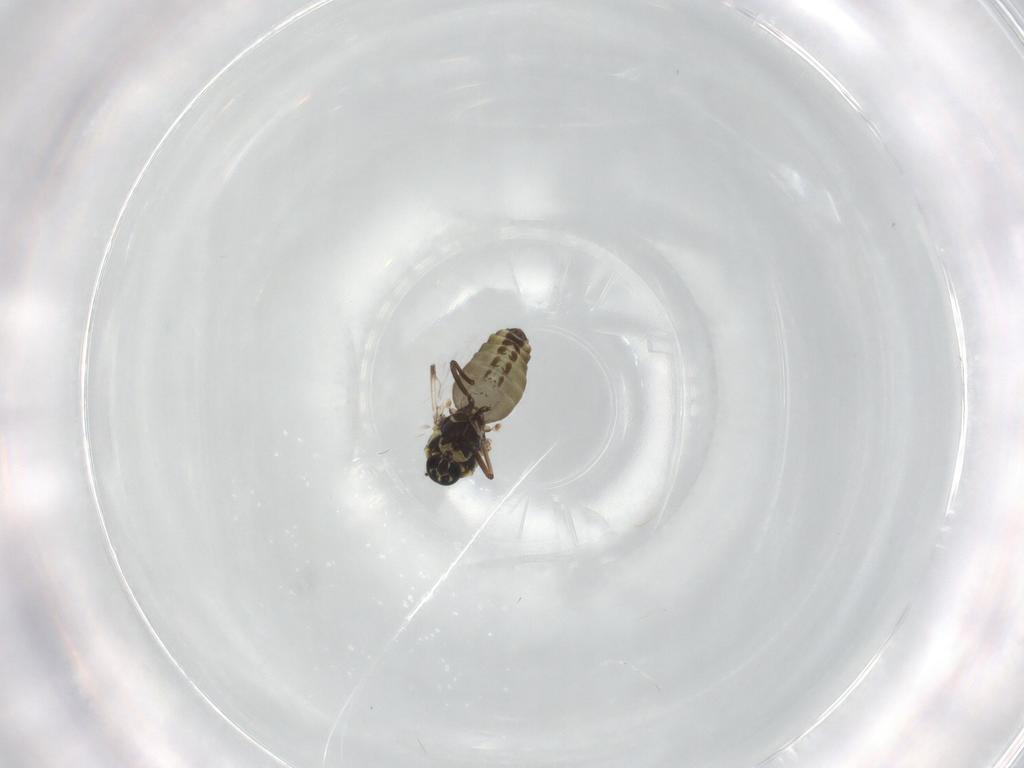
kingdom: Animalia
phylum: Arthropoda
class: Insecta
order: Diptera
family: Ceratopogonidae
